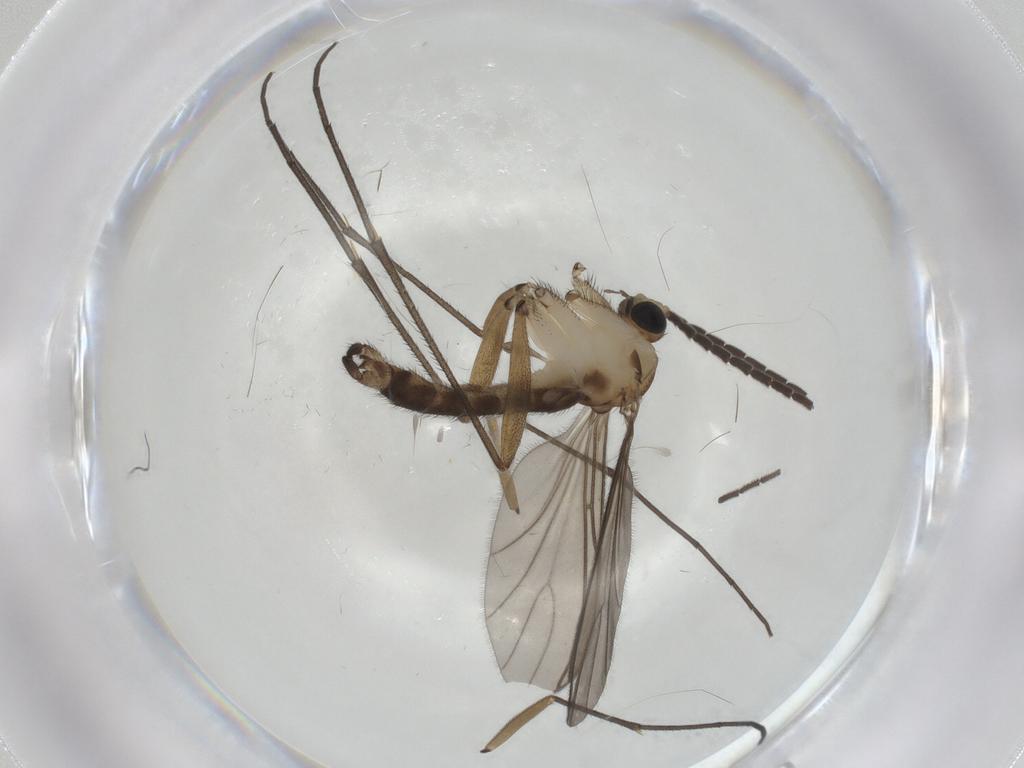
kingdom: Animalia
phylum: Arthropoda
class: Insecta
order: Diptera
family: Sciaridae
